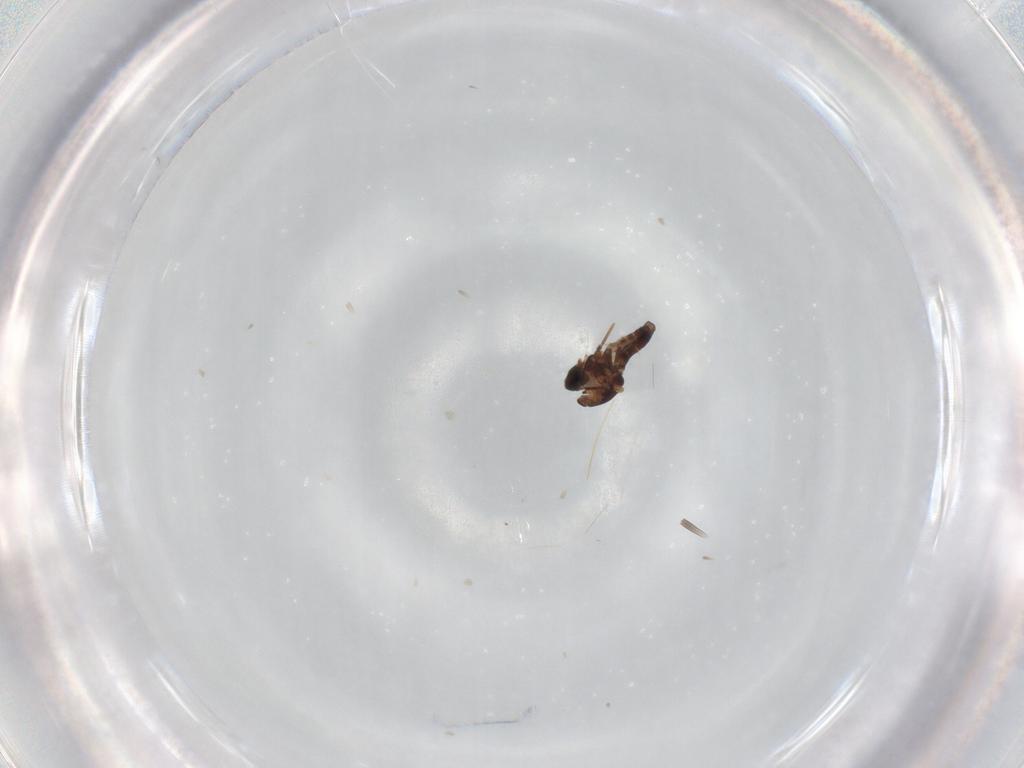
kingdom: Animalia
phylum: Arthropoda
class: Insecta
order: Diptera
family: Ceratopogonidae
